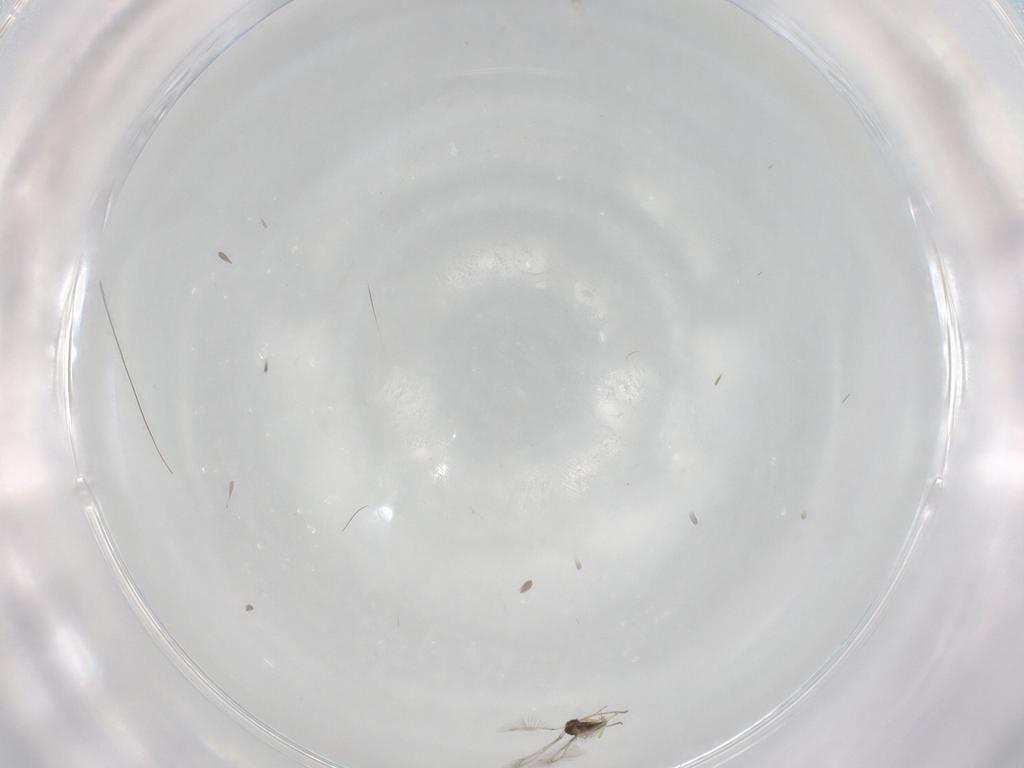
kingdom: Animalia
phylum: Arthropoda
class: Insecta
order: Hymenoptera
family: Mymaridae
